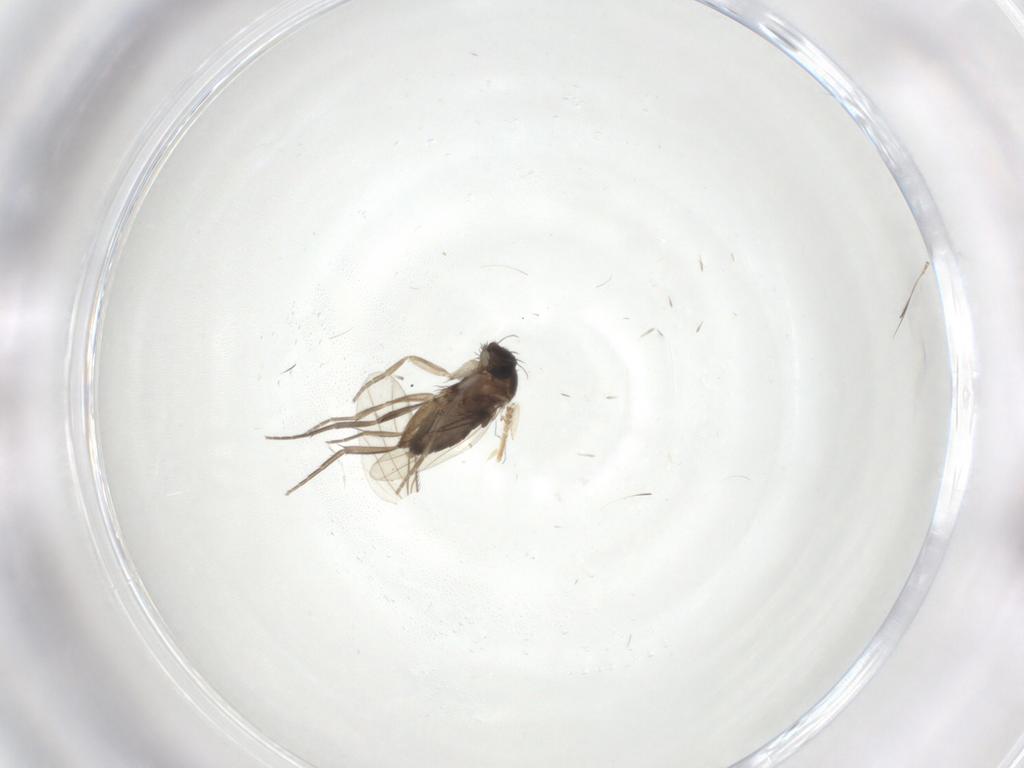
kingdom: Animalia
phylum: Arthropoda
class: Insecta
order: Diptera
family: Phoridae
